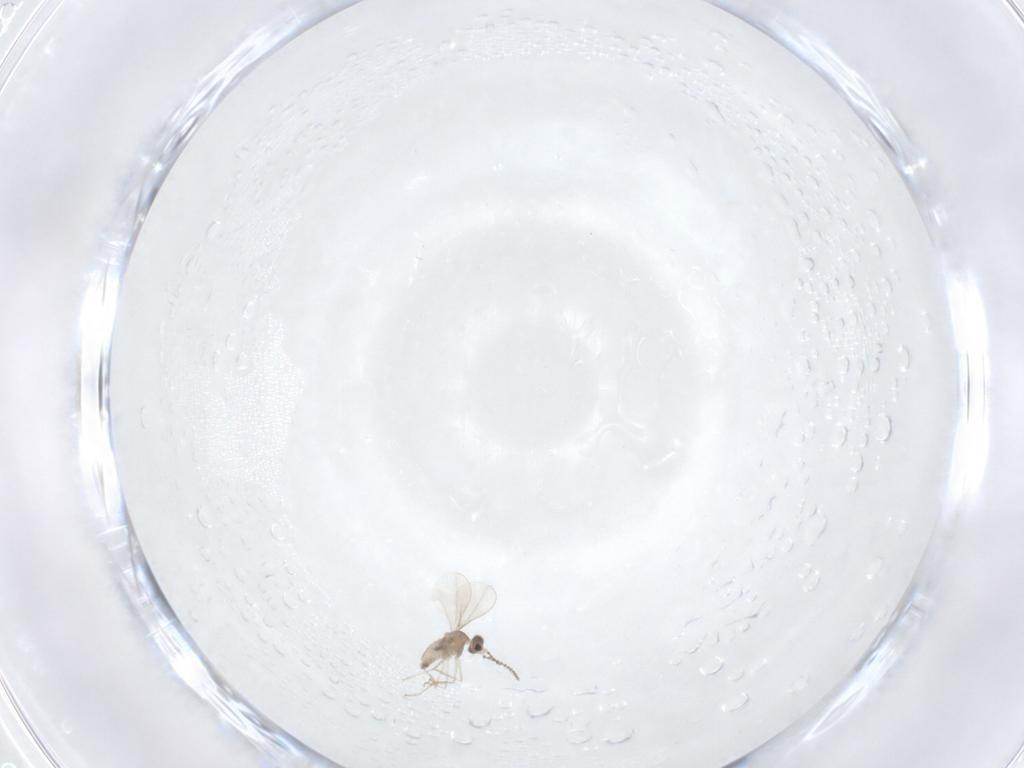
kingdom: Animalia
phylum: Arthropoda
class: Insecta
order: Diptera
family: Cecidomyiidae
